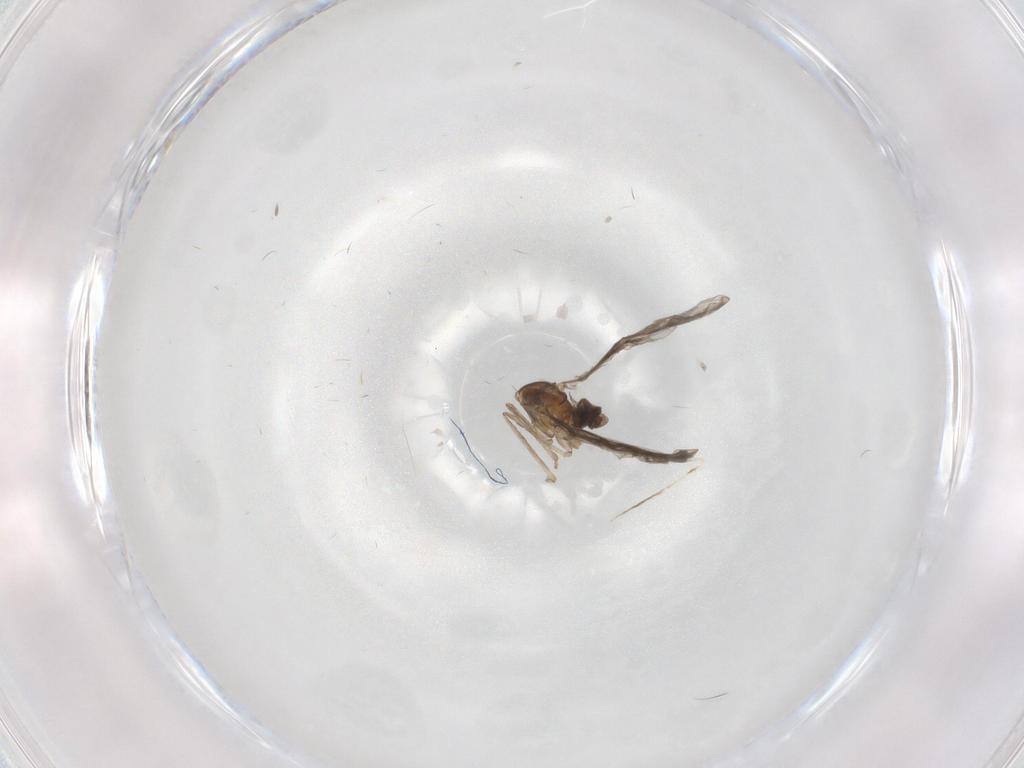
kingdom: Animalia
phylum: Arthropoda
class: Insecta
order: Diptera
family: Cecidomyiidae
